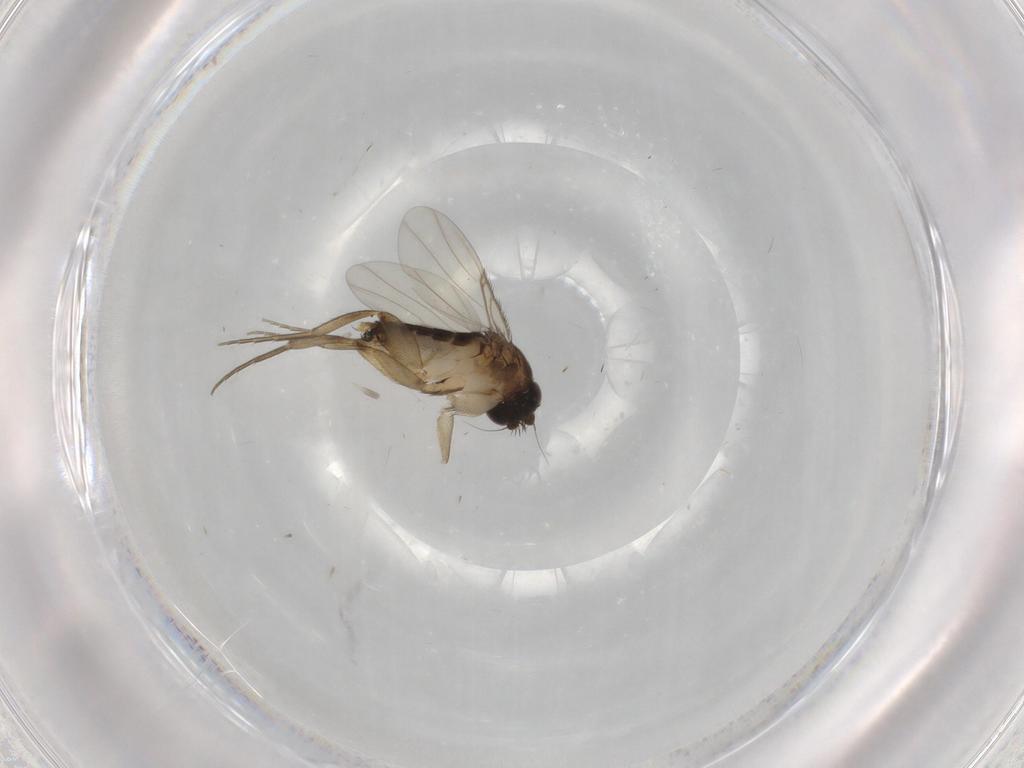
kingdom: Animalia
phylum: Arthropoda
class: Insecta
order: Diptera
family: Phoridae
